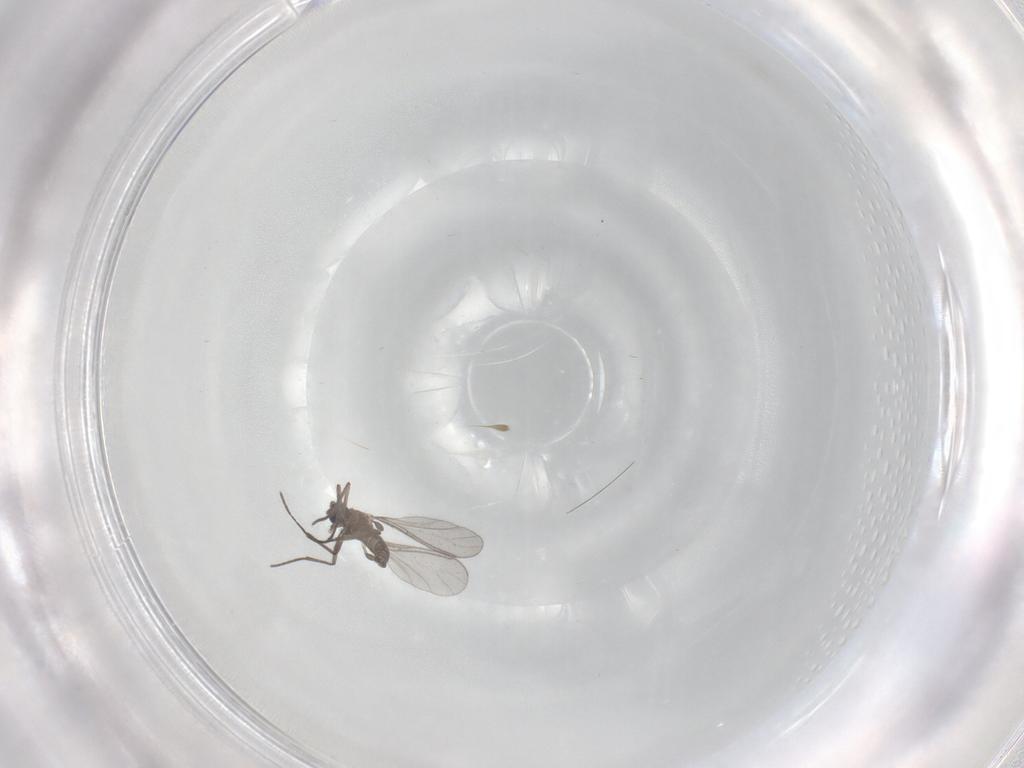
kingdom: Animalia
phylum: Arthropoda
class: Insecta
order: Diptera
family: Sciaridae
